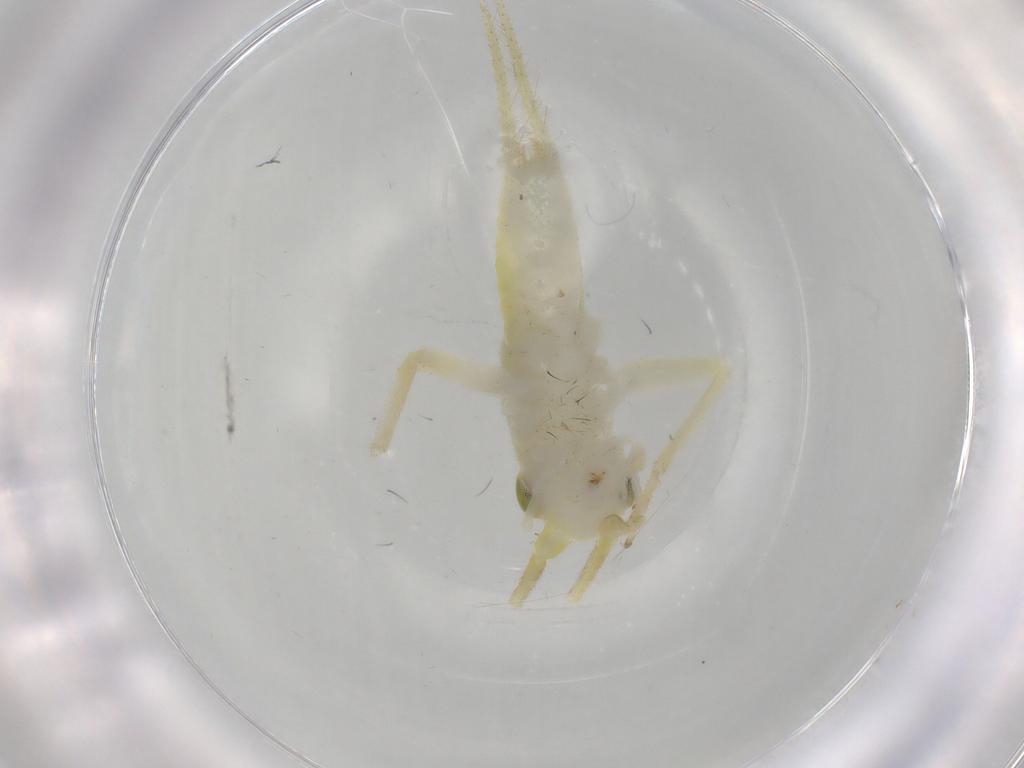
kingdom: Animalia
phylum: Arthropoda
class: Insecta
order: Orthoptera
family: Trigonidiidae
